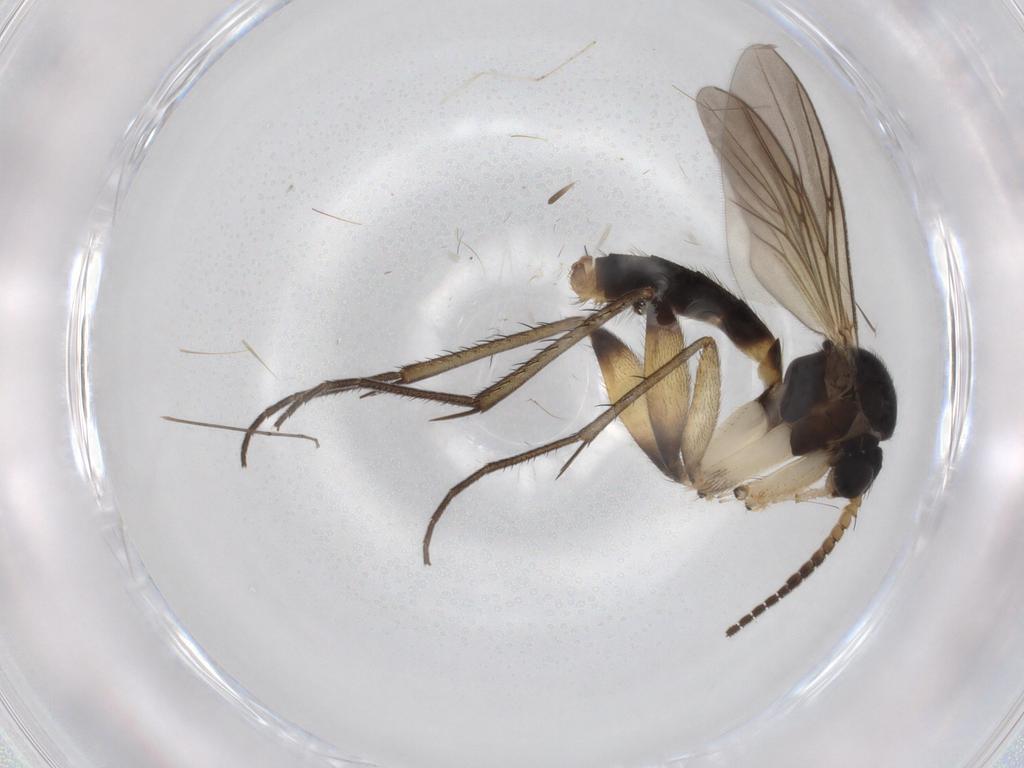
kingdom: Animalia
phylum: Arthropoda
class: Insecta
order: Diptera
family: Mycetophilidae
